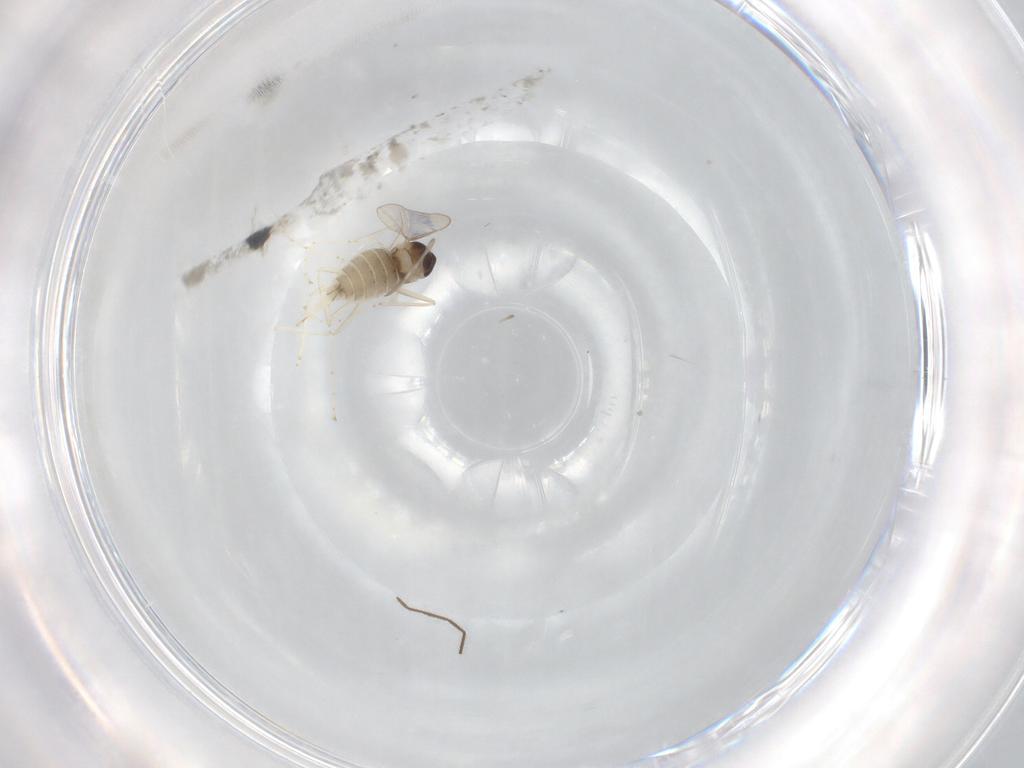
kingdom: Animalia
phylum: Arthropoda
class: Insecta
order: Diptera
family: Cecidomyiidae
